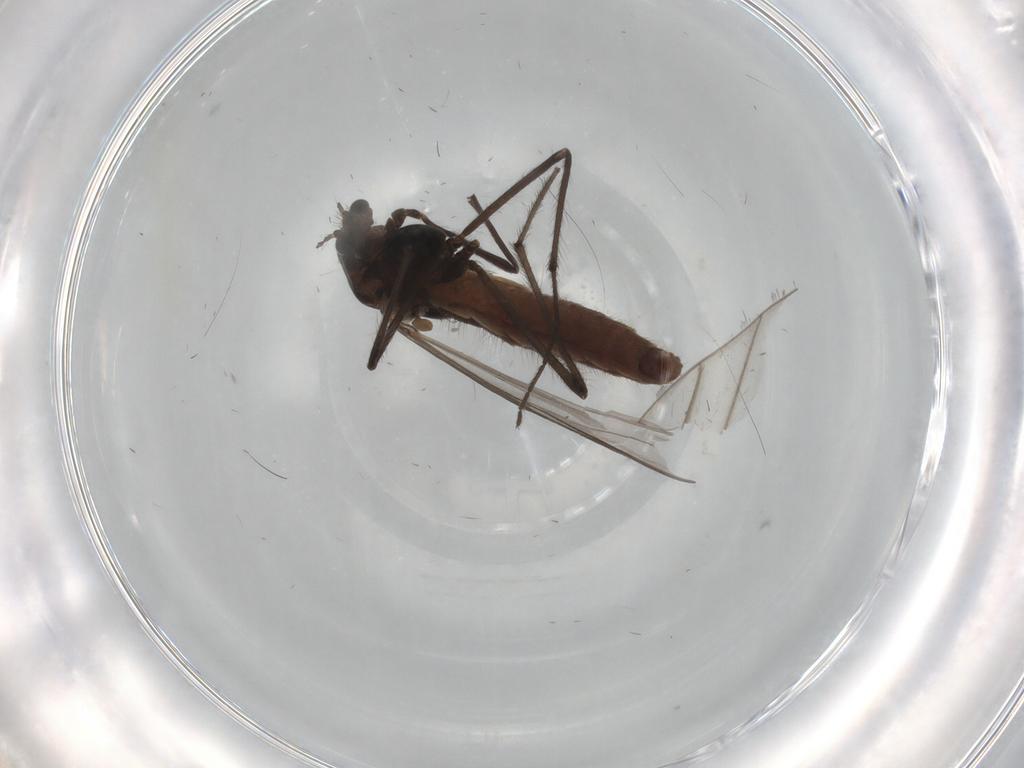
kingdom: Animalia
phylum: Arthropoda
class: Insecta
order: Diptera
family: Chironomidae
